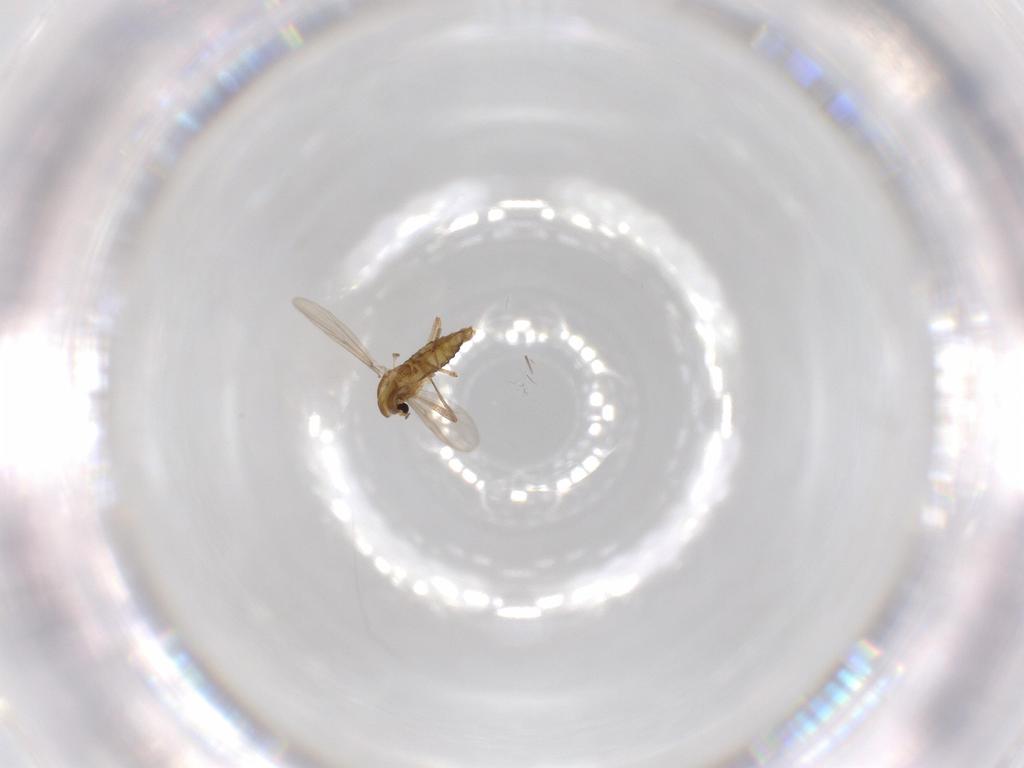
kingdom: Animalia
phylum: Arthropoda
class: Insecta
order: Diptera
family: Chironomidae
